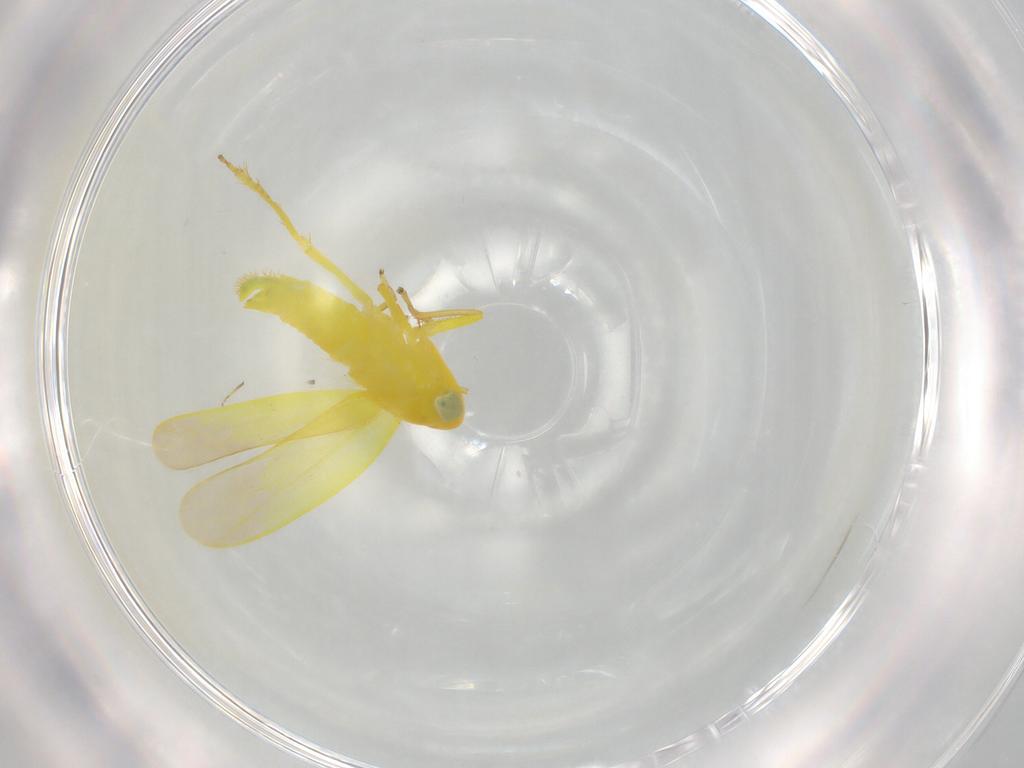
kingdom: Animalia
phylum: Arthropoda
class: Insecta
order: Hemiptera
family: Cicadellidae
